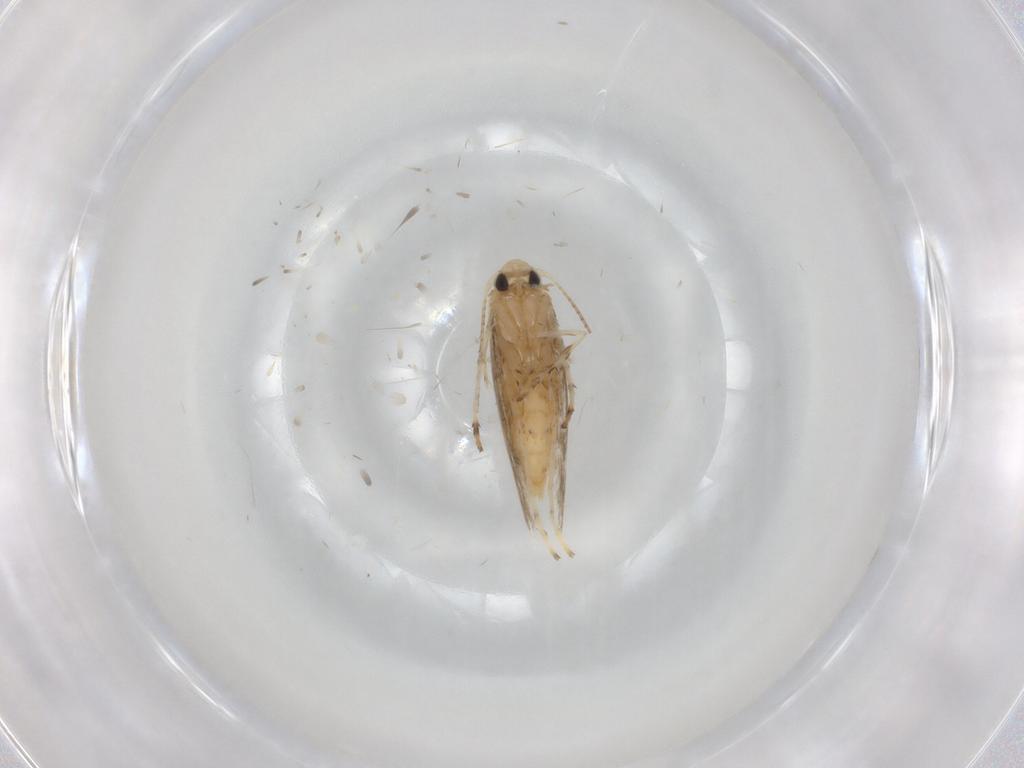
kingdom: Animalia
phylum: Arthropoda
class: Insecta
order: Lepidoptera
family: Gracillariidae
